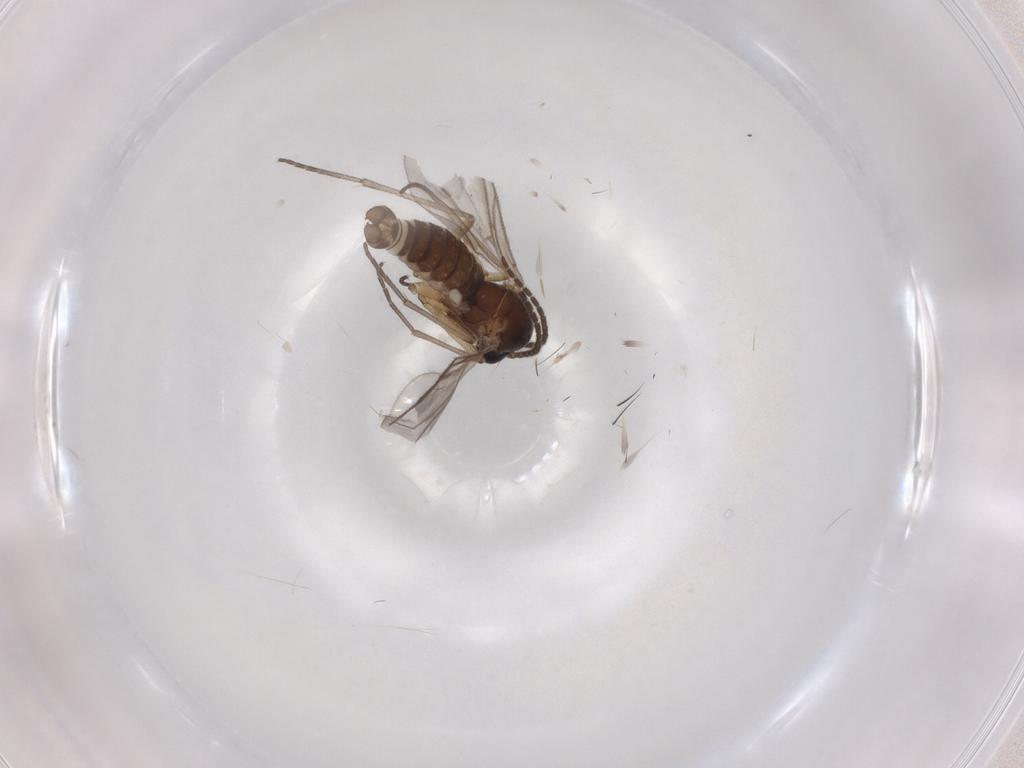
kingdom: Animalia
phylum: Arthropoda
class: Insecta
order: Diptera
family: Sciaridae
